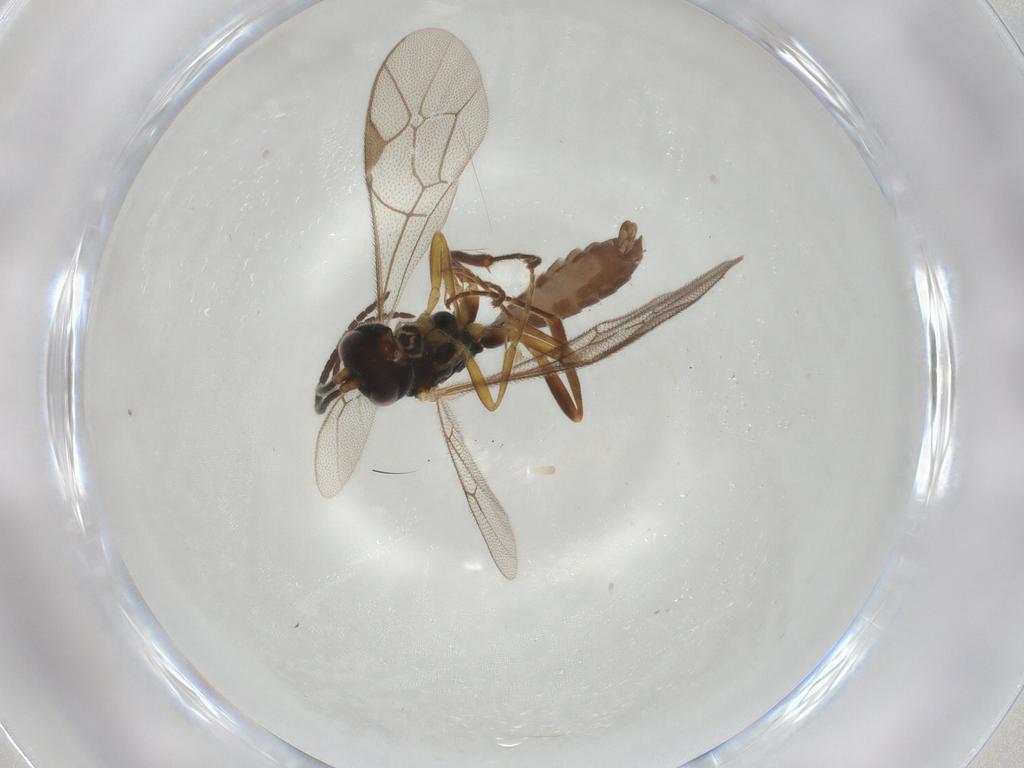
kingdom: Animalia
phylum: Arthropoda
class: Insecta
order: Hymenoptera
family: Ichneumonidae
